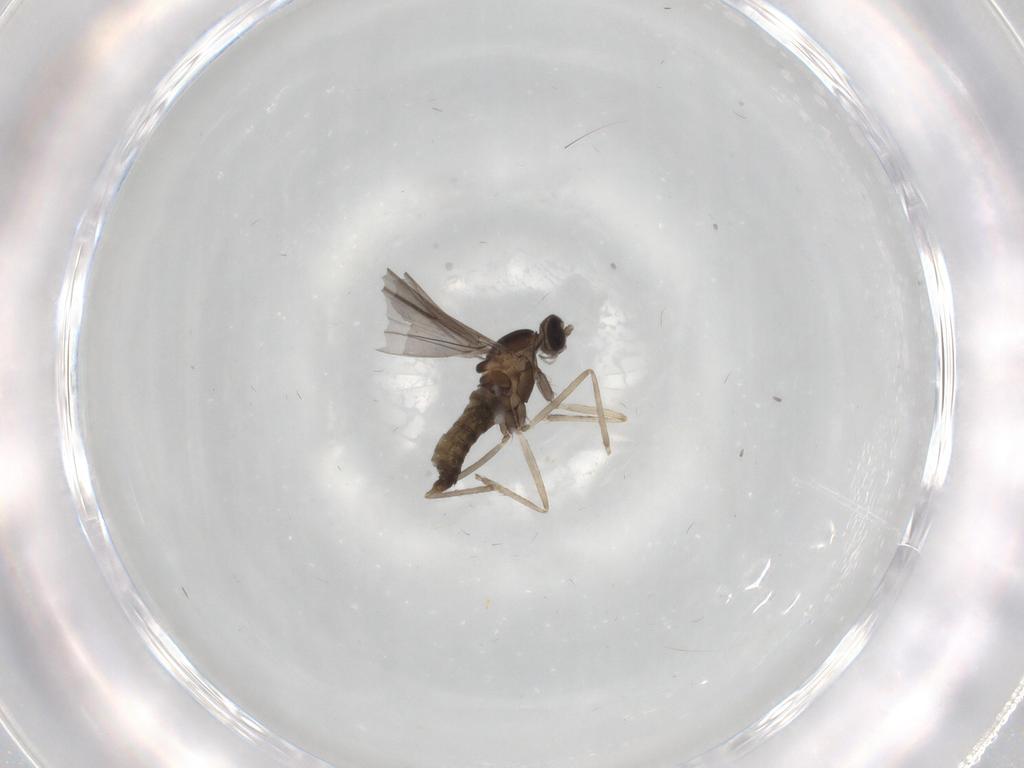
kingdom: Animalia
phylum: Arthropoda
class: Insecta
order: Diptera
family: Cecidomyiidae
